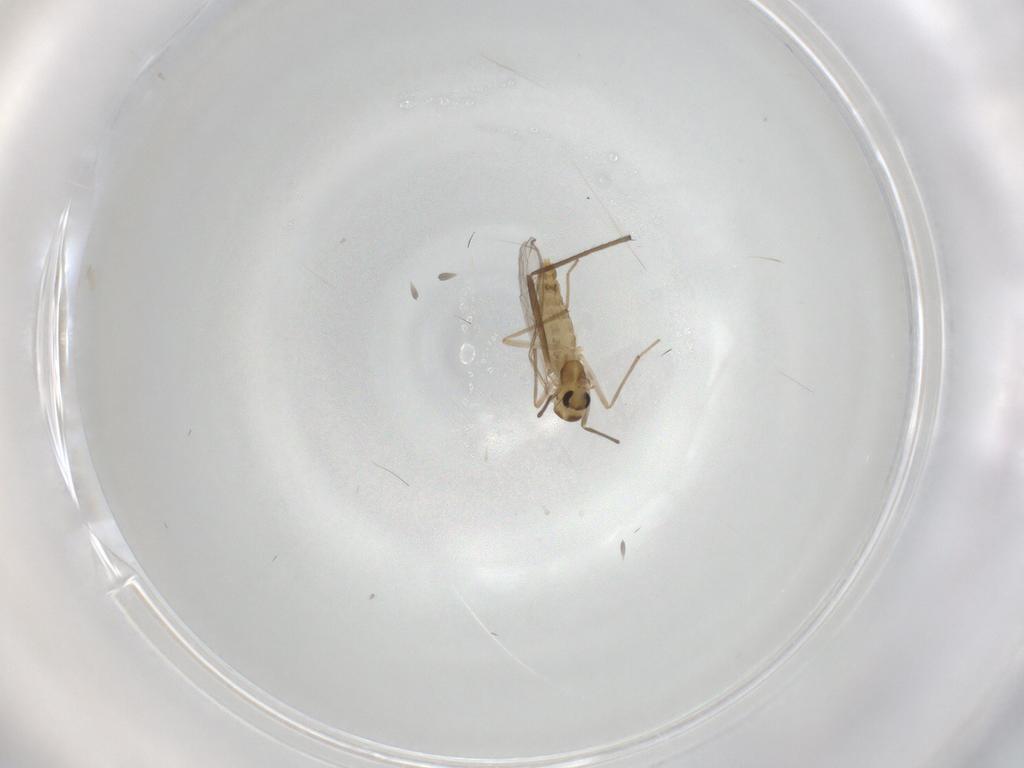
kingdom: Animalia
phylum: Arthropoda
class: Insecta
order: Diptera
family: Chironomidae
